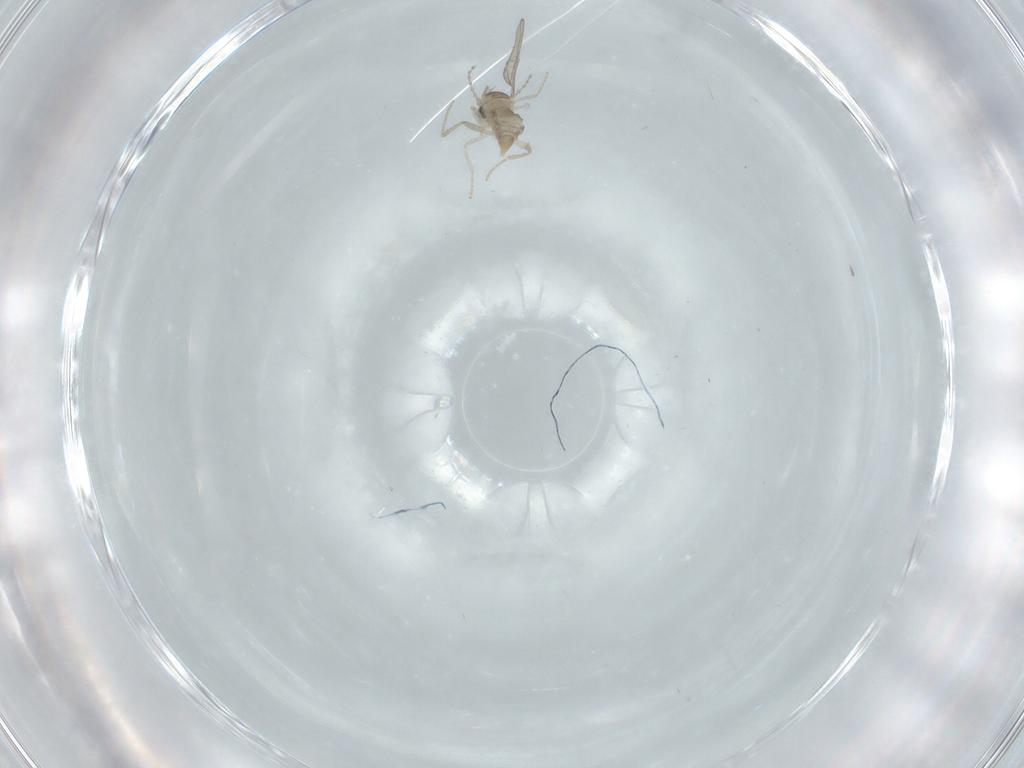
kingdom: Animalia
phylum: Arthropoda
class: Insecta
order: Diptera
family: Cecidomyiidae
